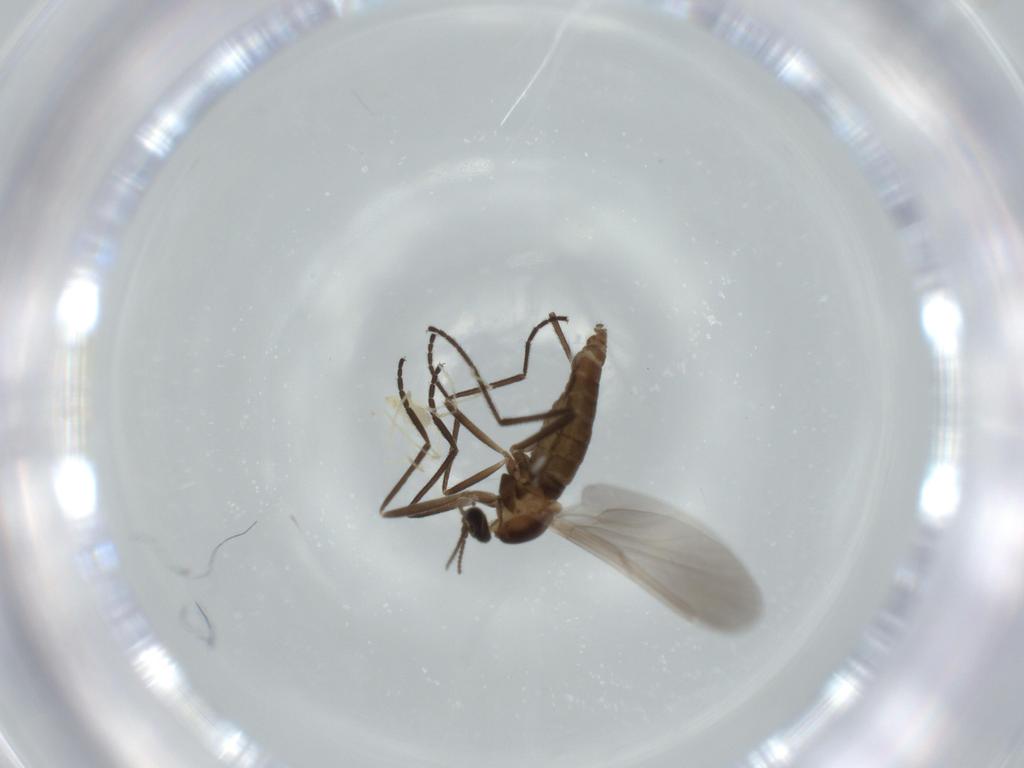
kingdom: Animalia
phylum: Arthropoda
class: Insecta
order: Diptera
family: Cecidomyiidae
